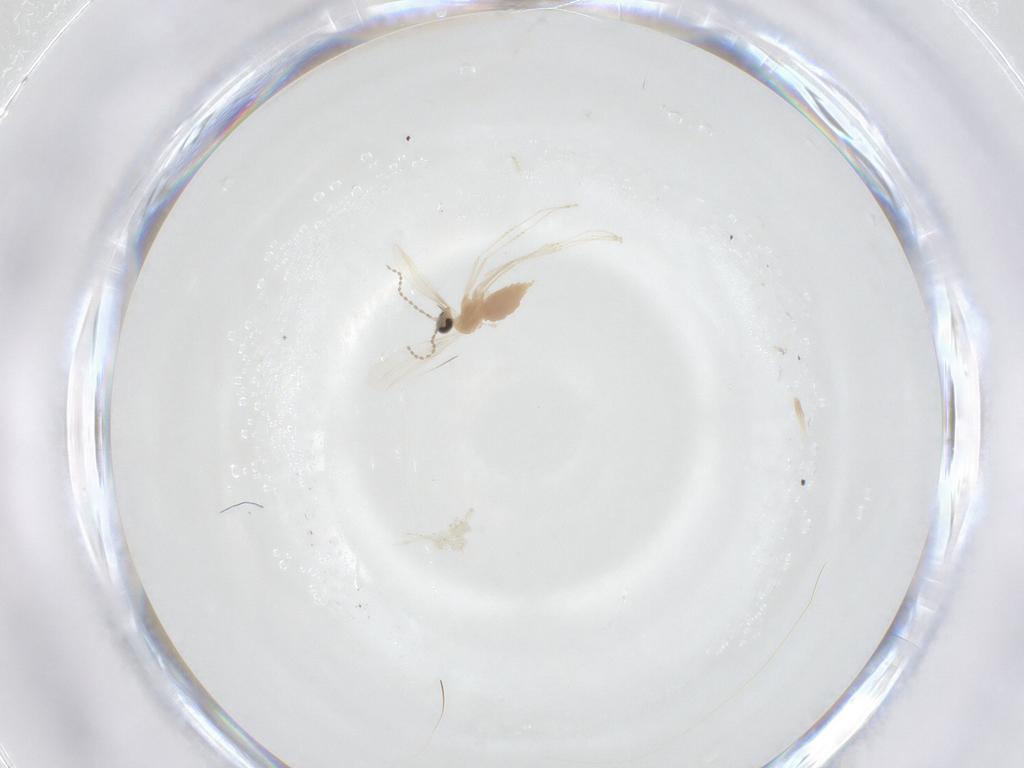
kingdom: Animalia
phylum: Arthropoda
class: Insecta
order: Diptera
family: Cecidomyiidae
